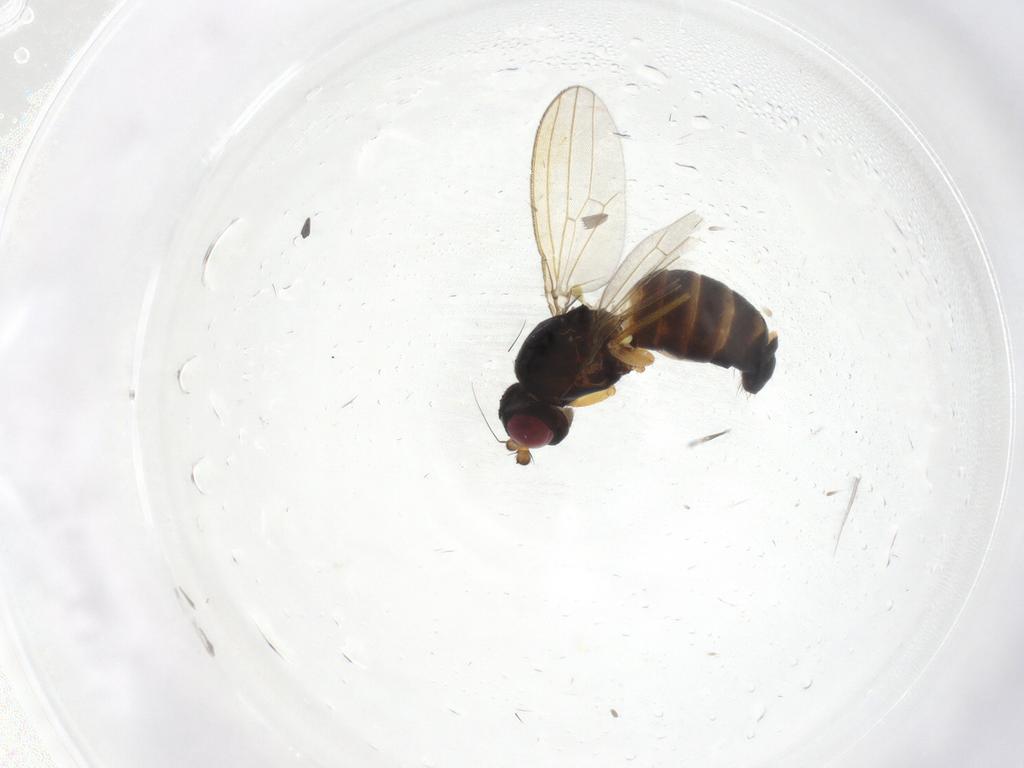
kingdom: Animalia
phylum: Arthropoda
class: Insecta
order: Diptera
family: Cypselosomatidae
